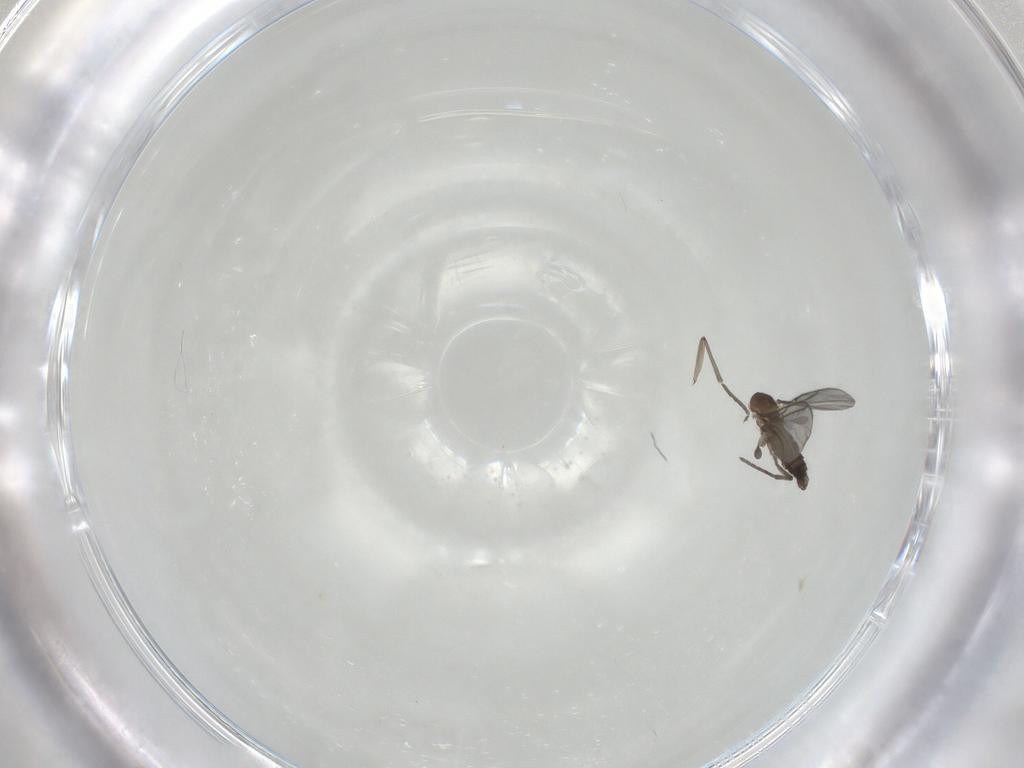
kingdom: Animalia
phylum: Arthropoda
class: Insecta
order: Diptera
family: Sciaridae
